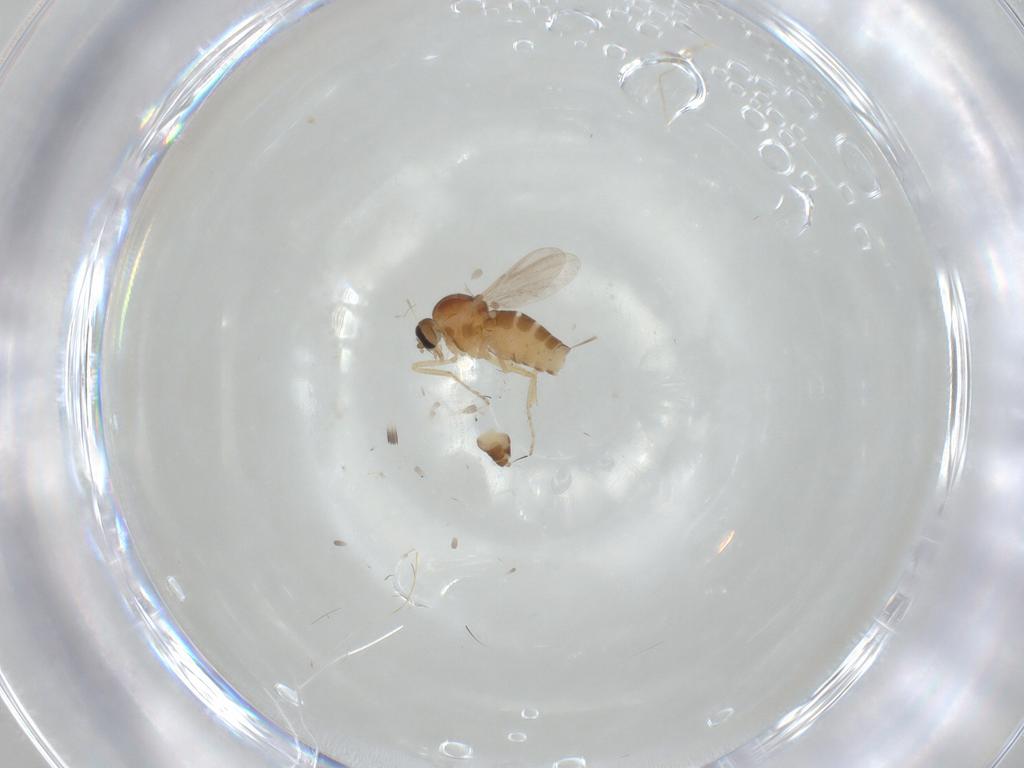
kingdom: Animalia
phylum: Arthropoda
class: Insecta
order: Diptera
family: Ceratopogonidae
